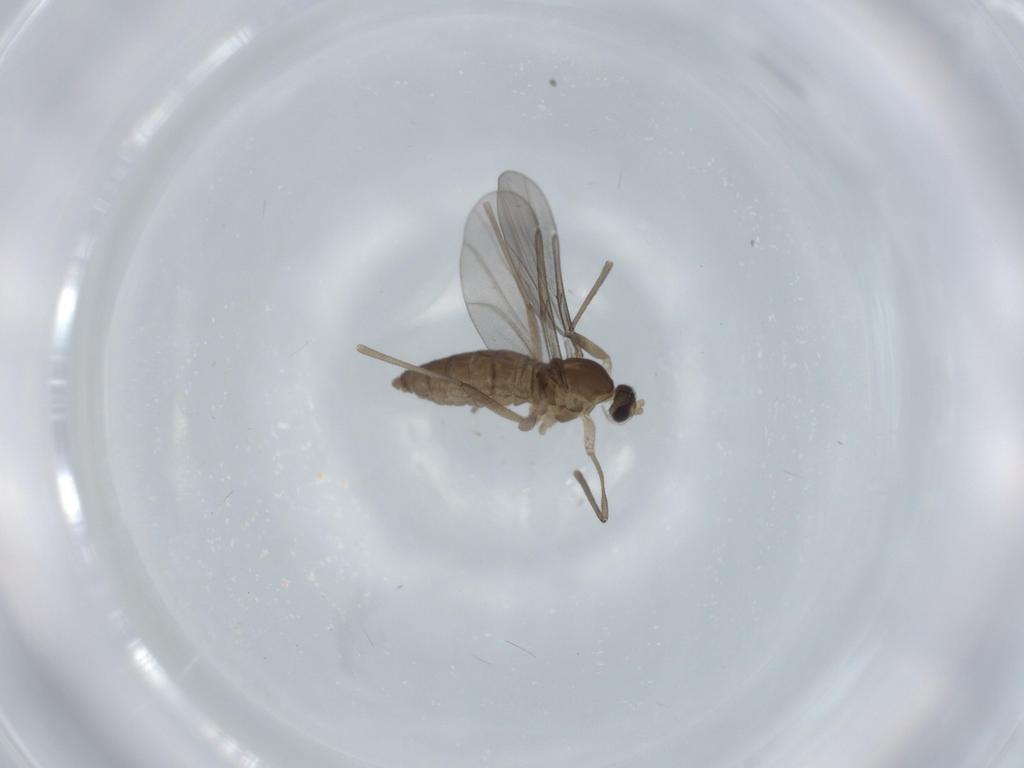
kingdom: Animalia
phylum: Arthropoda
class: Insecta
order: Diptera
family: Cecidomyiidae
